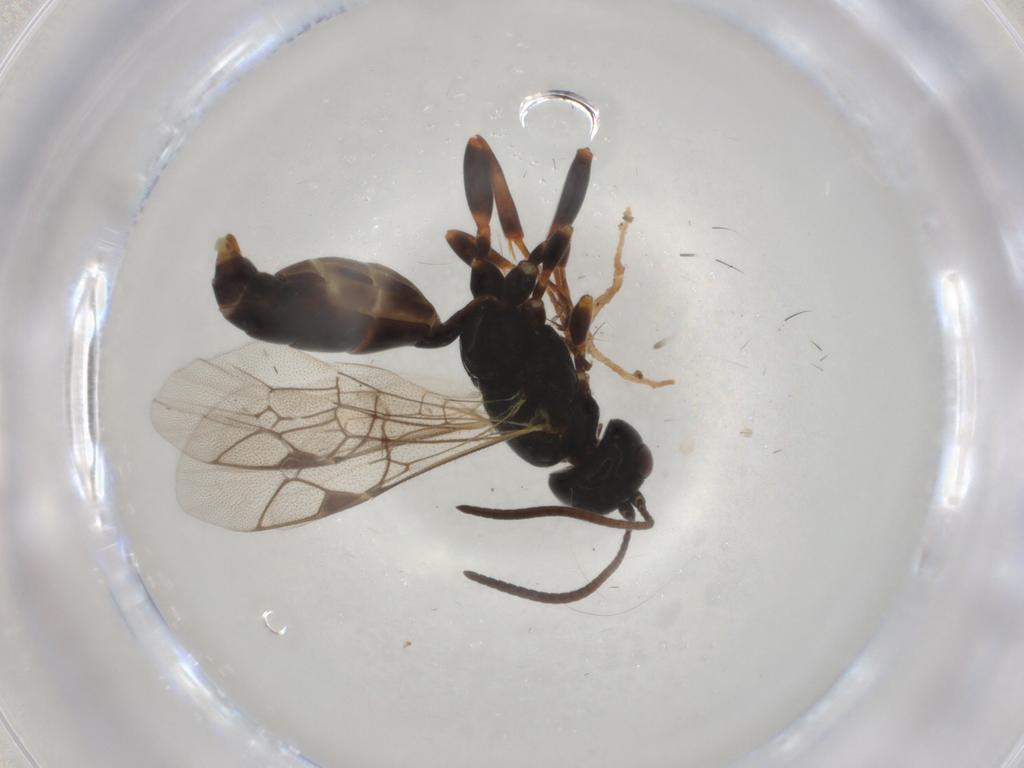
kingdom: Animalia
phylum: Arthropoda
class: Insecta
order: Hymenoptera
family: Ichneumonidae
